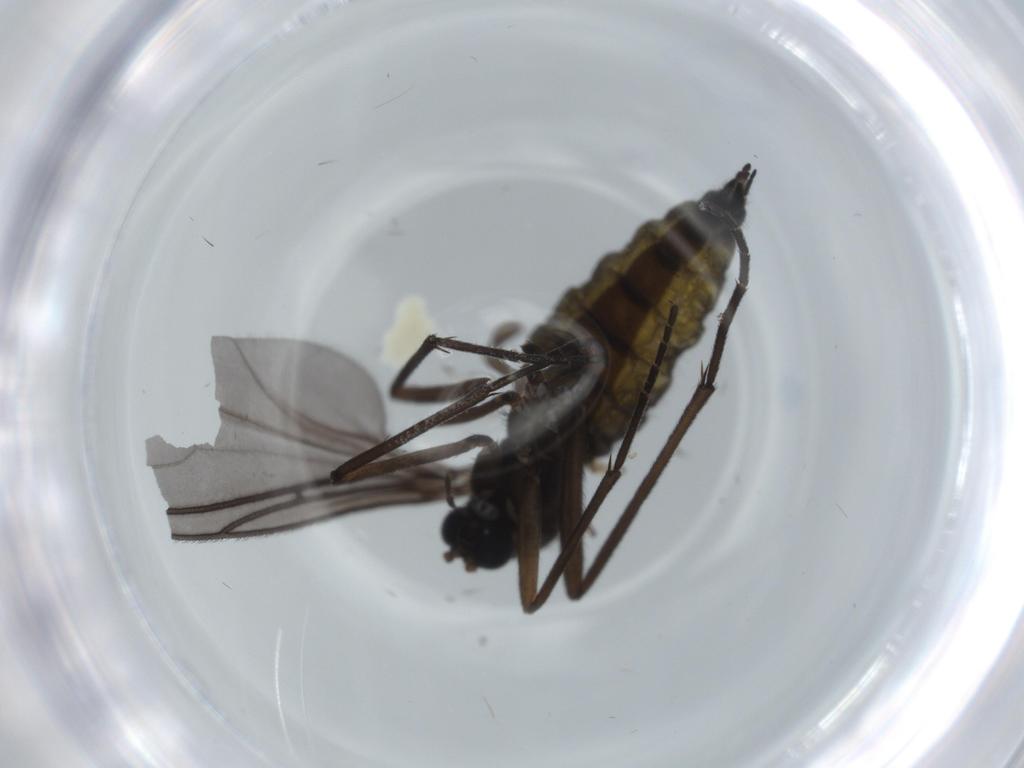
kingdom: Animalia
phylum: Arthropoda
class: Insecta
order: Diptera
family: Sciaridae
